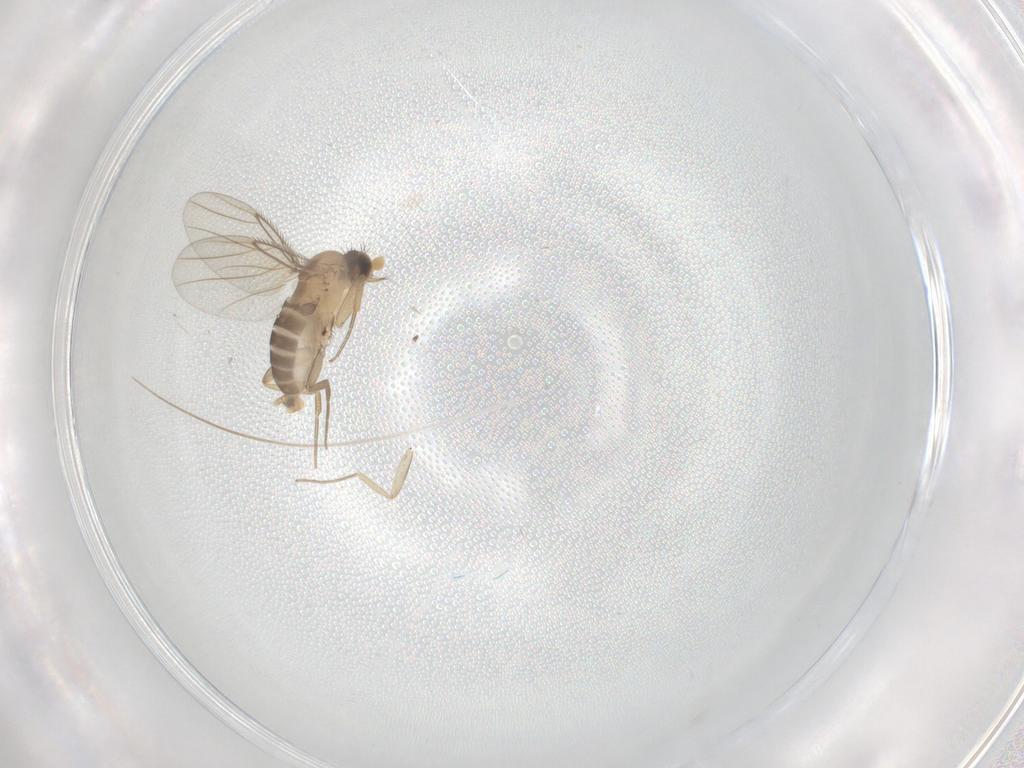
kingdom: Animalia
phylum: Arthropoda
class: Insecta
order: Diptera
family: Phoridae
